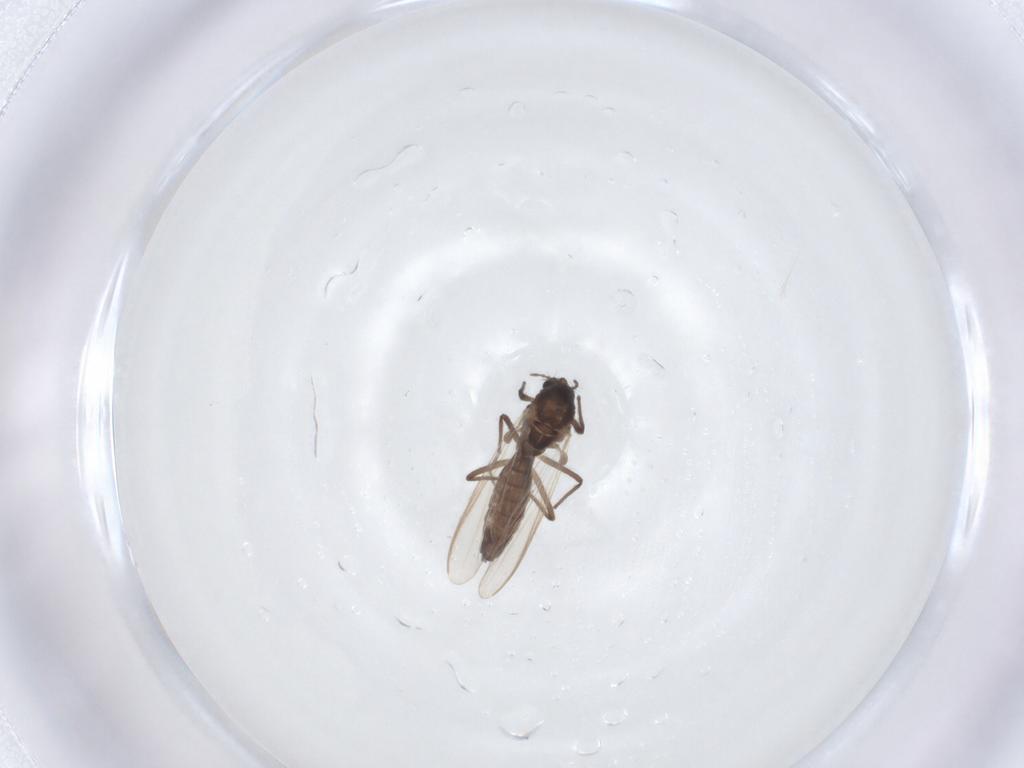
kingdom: Animalia
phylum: Arthropoda
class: Insecta
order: Diptera
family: Chironomidae
